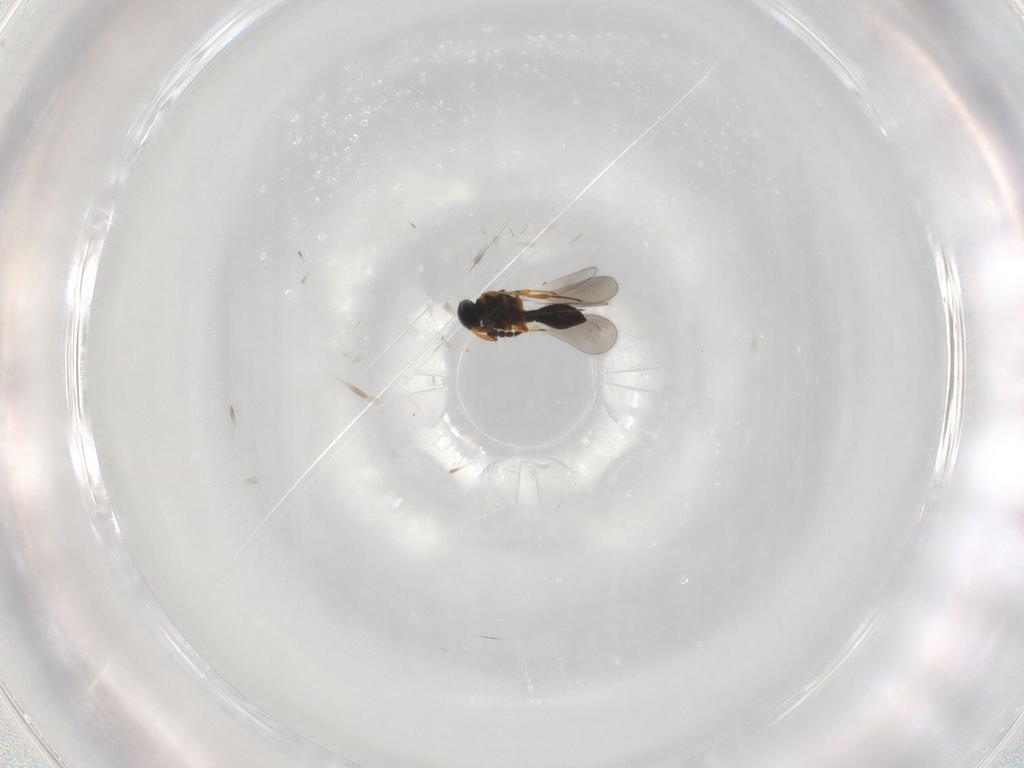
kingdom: Animalia
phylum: Arthropoda
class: Insecta
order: Hymenoptera
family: Platygastridae
